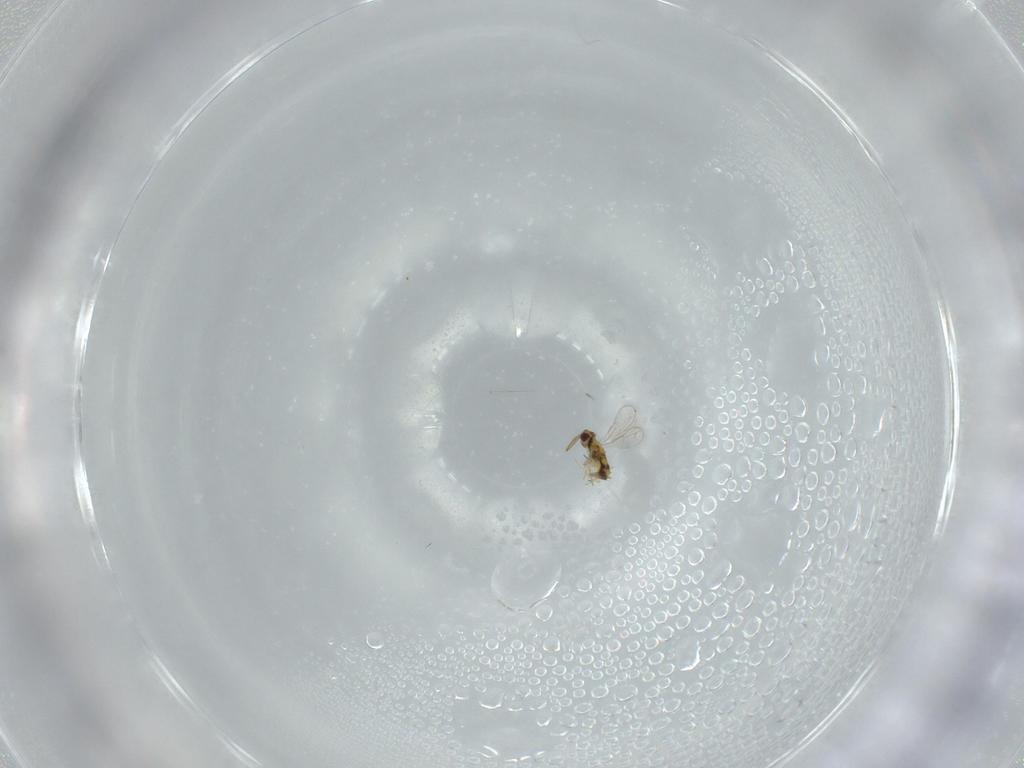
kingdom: Animalia
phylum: Arthropoda
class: Insecta
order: Hymenoptera
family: Aphelinidae
